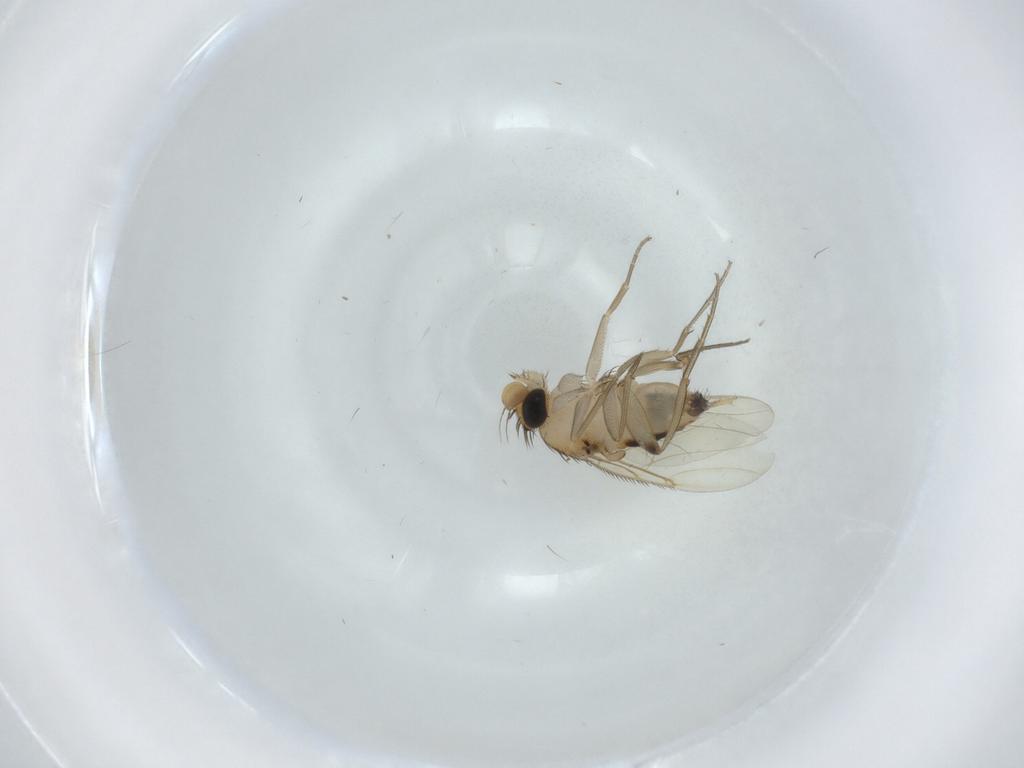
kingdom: Animalia
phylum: Arthropoda
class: Insecta
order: Diptera
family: Phoridae
